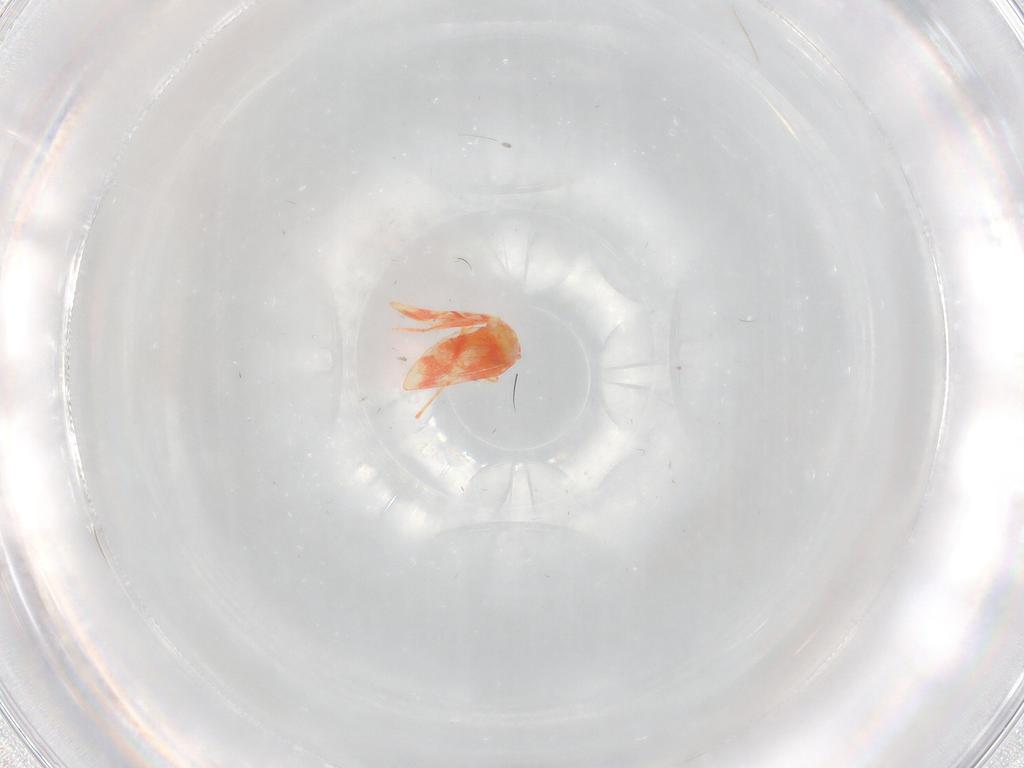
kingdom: Animalia
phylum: Arthropoda
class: Insecta
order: Hemiptera
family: Aleyrodidae
